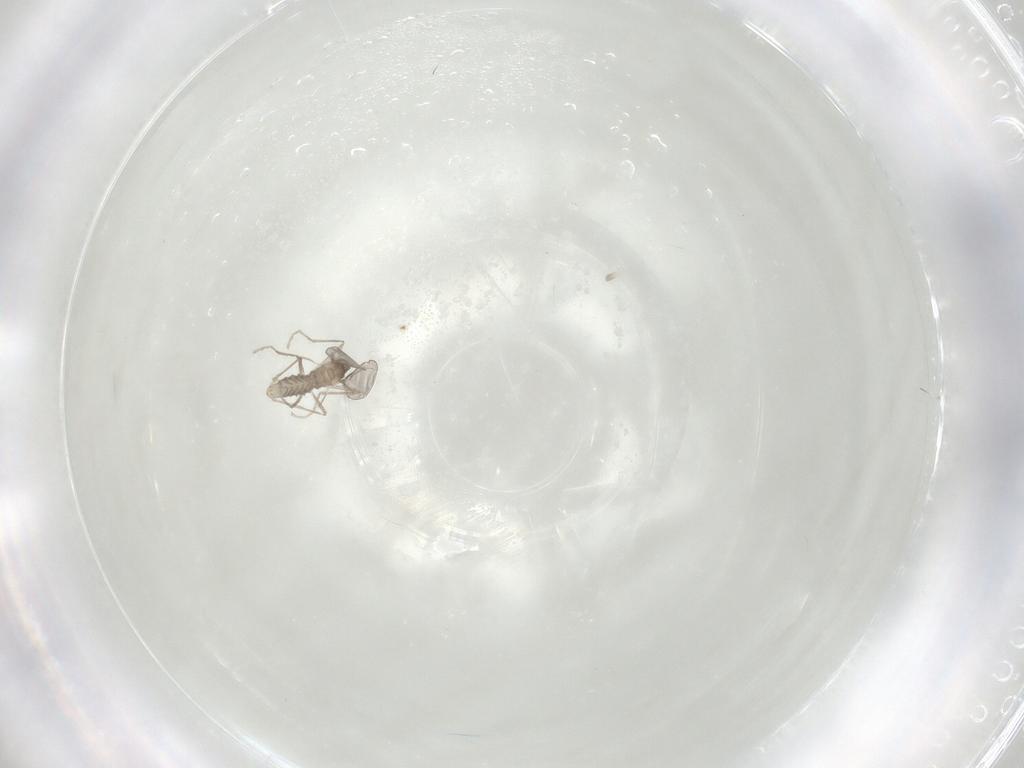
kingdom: Animalia
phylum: Arthropoda
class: Insecta
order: Diptera
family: Cecidomyiidae
